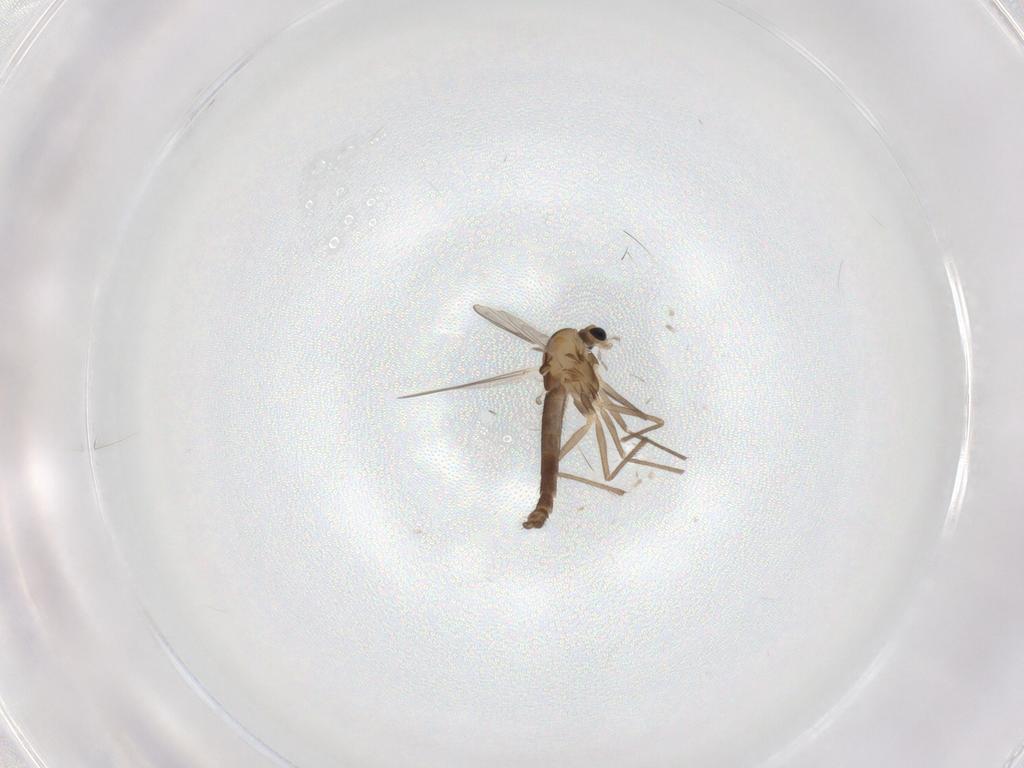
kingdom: Animalia
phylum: Arthropoda
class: Insecta
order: Diptera
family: Chironomidae
